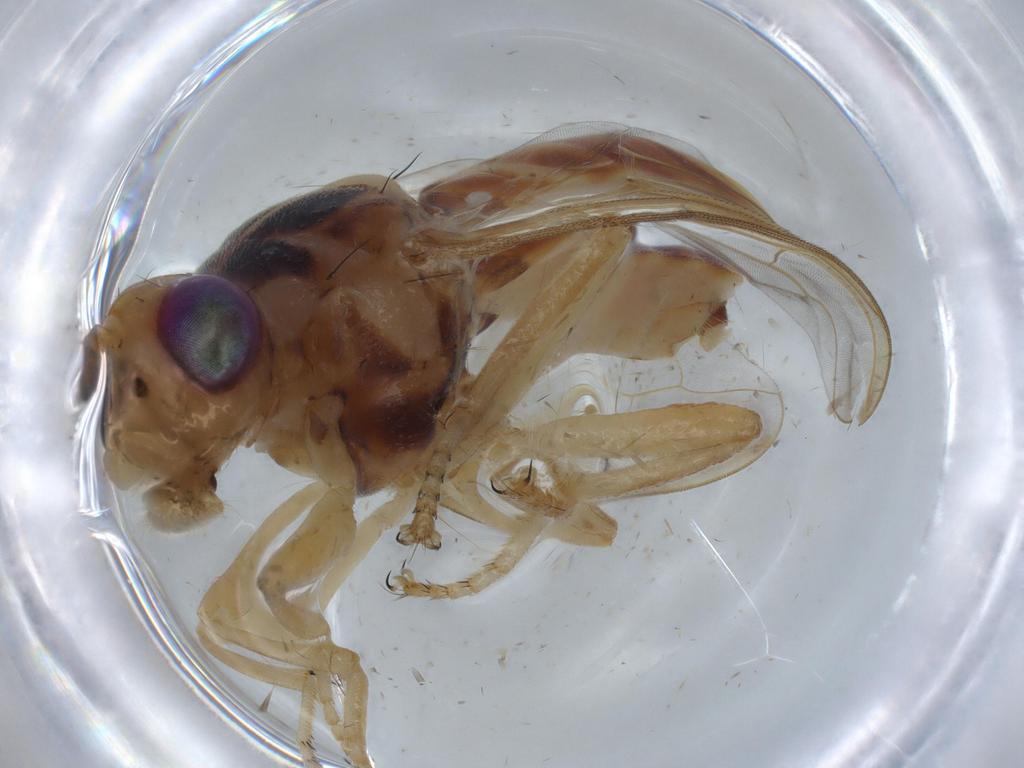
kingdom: Animalia
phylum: Arthropoda
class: Insecta
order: Diptera
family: Tephritidae
